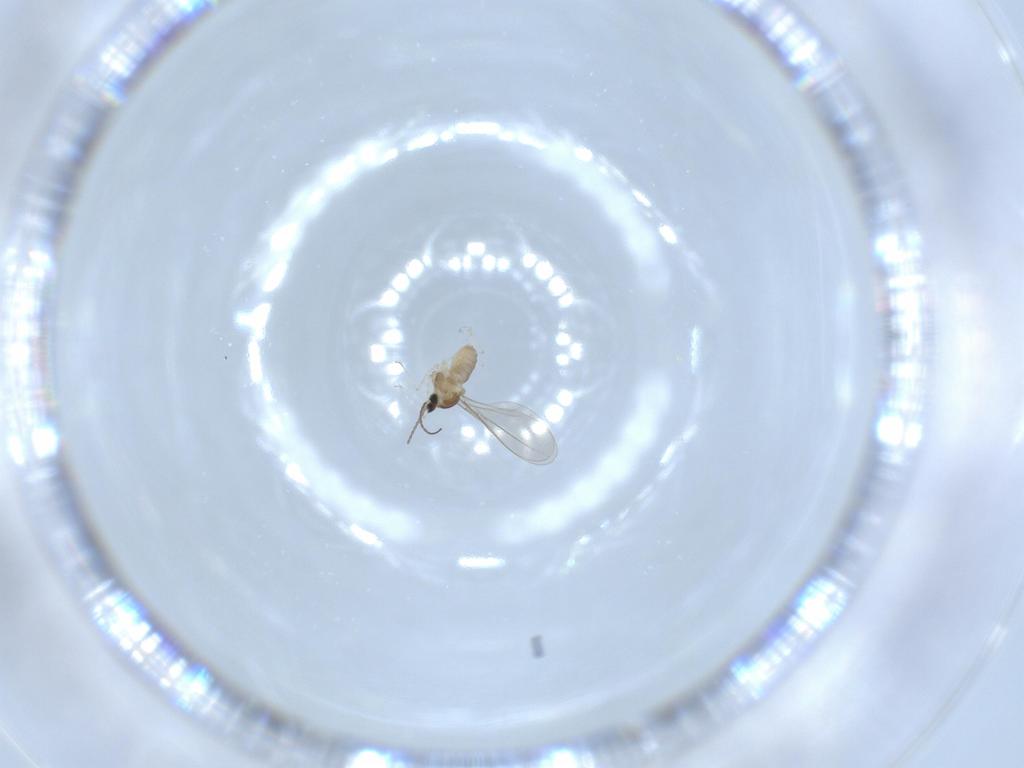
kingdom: Animalia
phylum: Arthropoda
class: Insecta
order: Diptera
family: Cecidomyiidae
